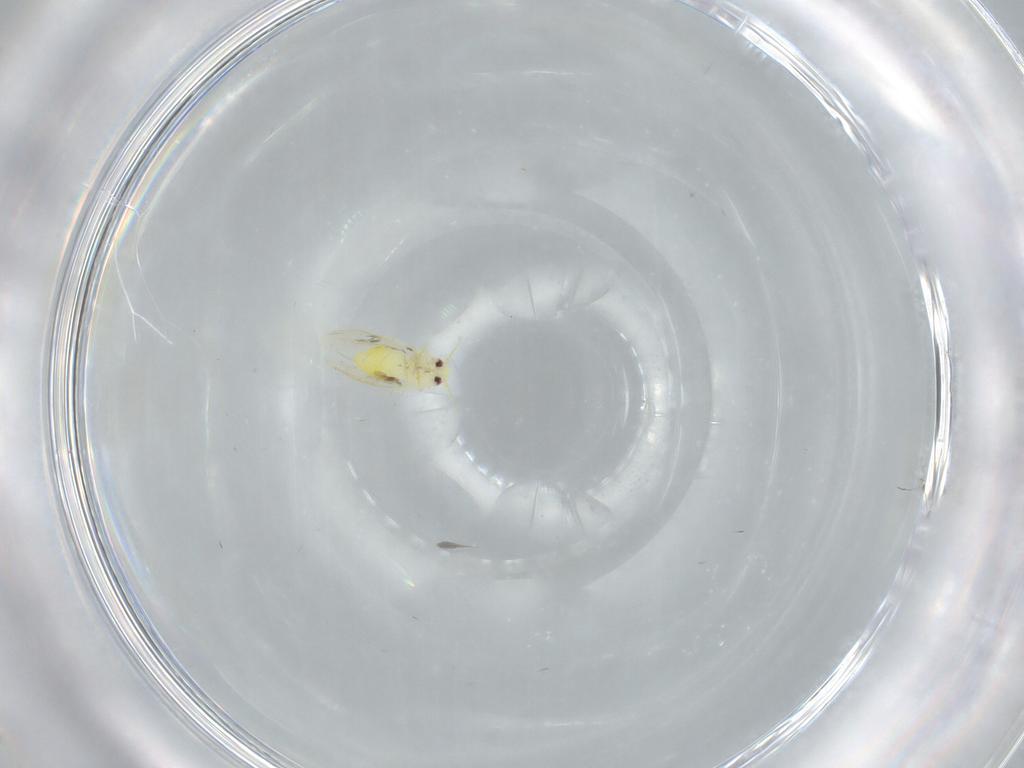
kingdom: Animalia
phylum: Arthropoda
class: Insecta
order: Hemiptera
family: Aleyrodidae
